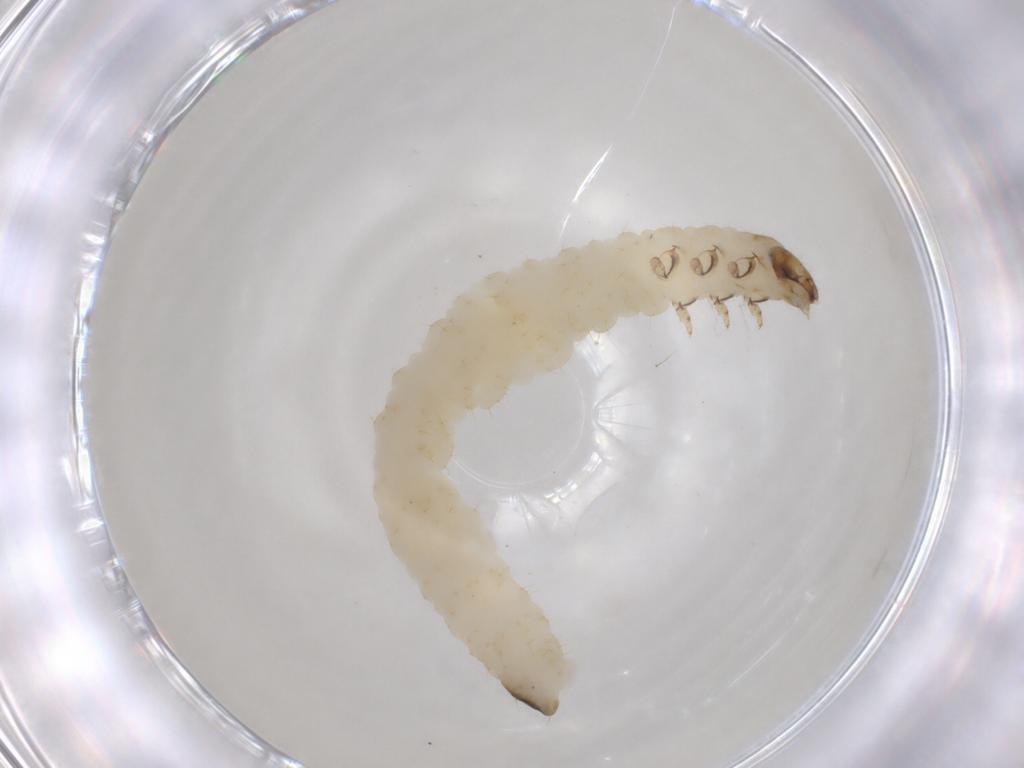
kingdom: Animalia
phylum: Arthropoda
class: Insecta
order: Coleoptera
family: Chrysomelidae
